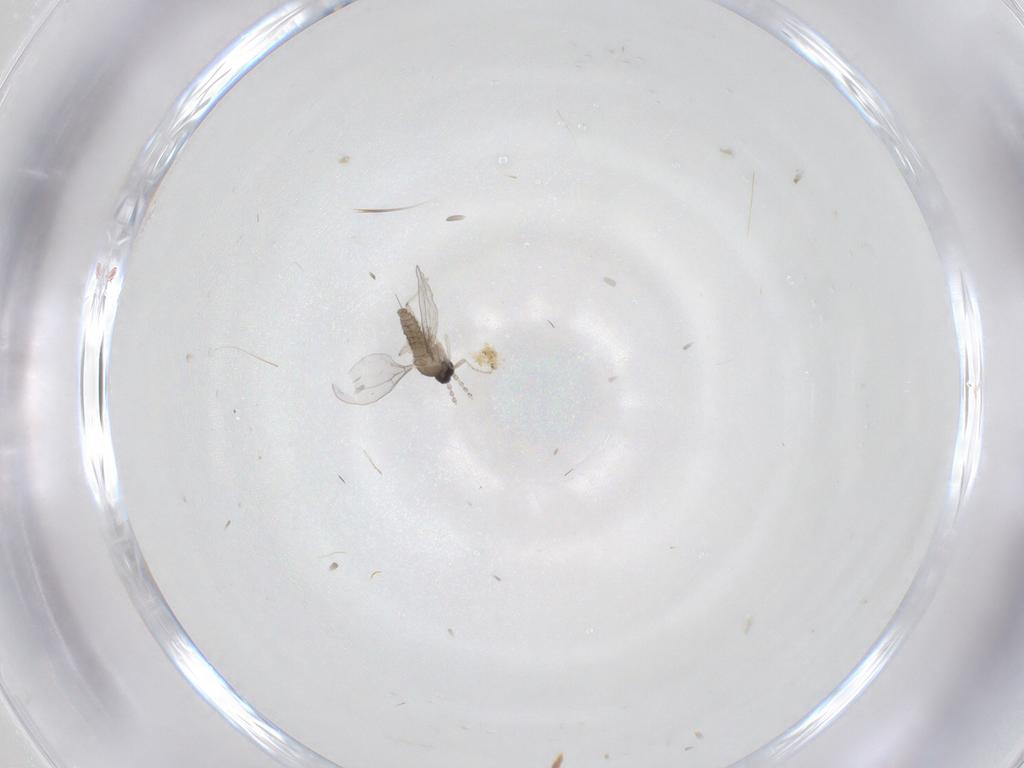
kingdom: Animalia
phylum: Arthropoda
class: Insecta
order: Diptera
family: Cecidomyiidae
